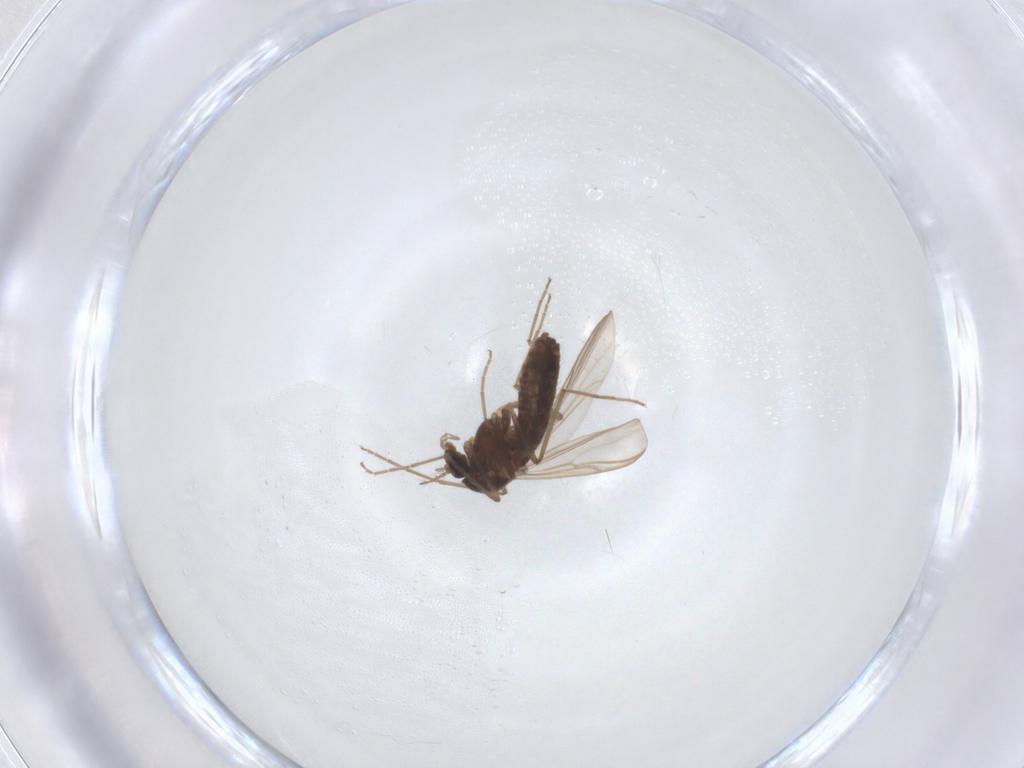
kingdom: Animalia
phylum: Arthropoda
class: Insecta
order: Diptera
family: Chironomidae
